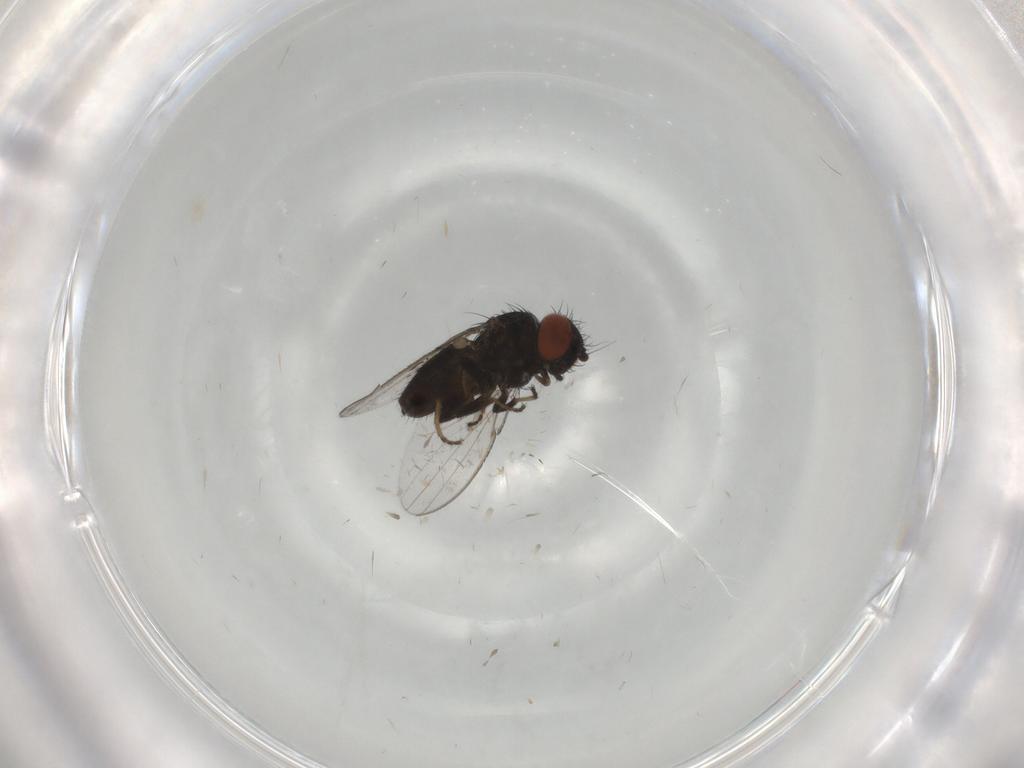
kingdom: Animalia
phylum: Arthropoda
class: Insecta
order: Diptera
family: Milichiidae
